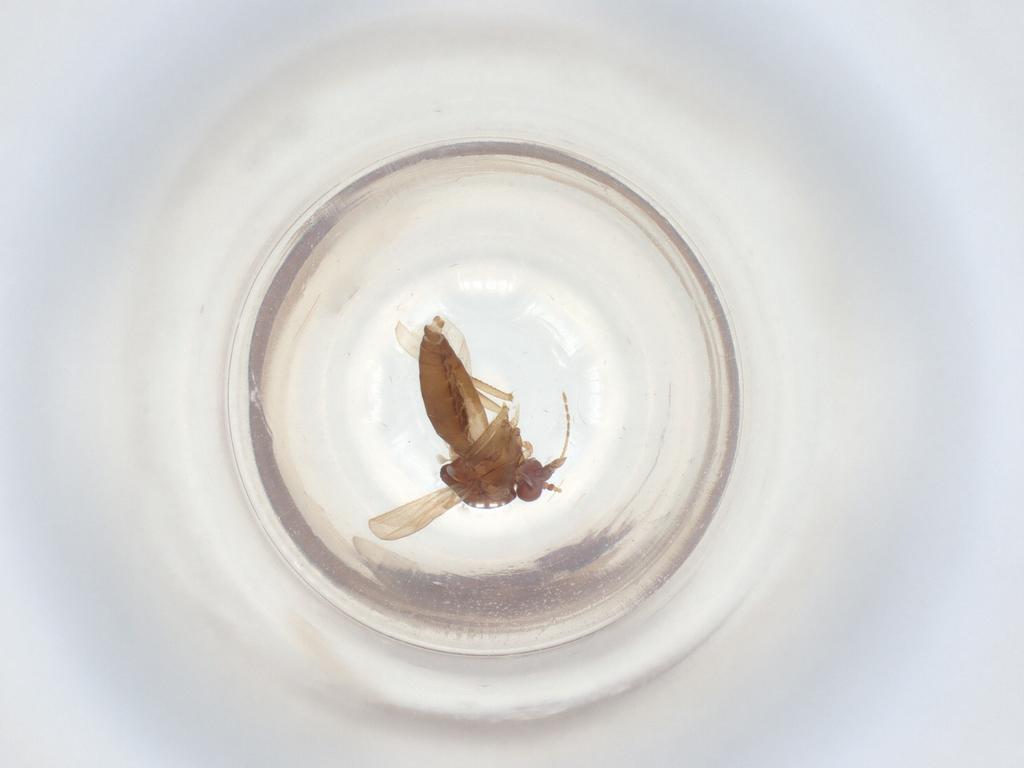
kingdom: Animalia
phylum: Arthropoda
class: Insecta
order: Diptera
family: Ceratopogonidae
